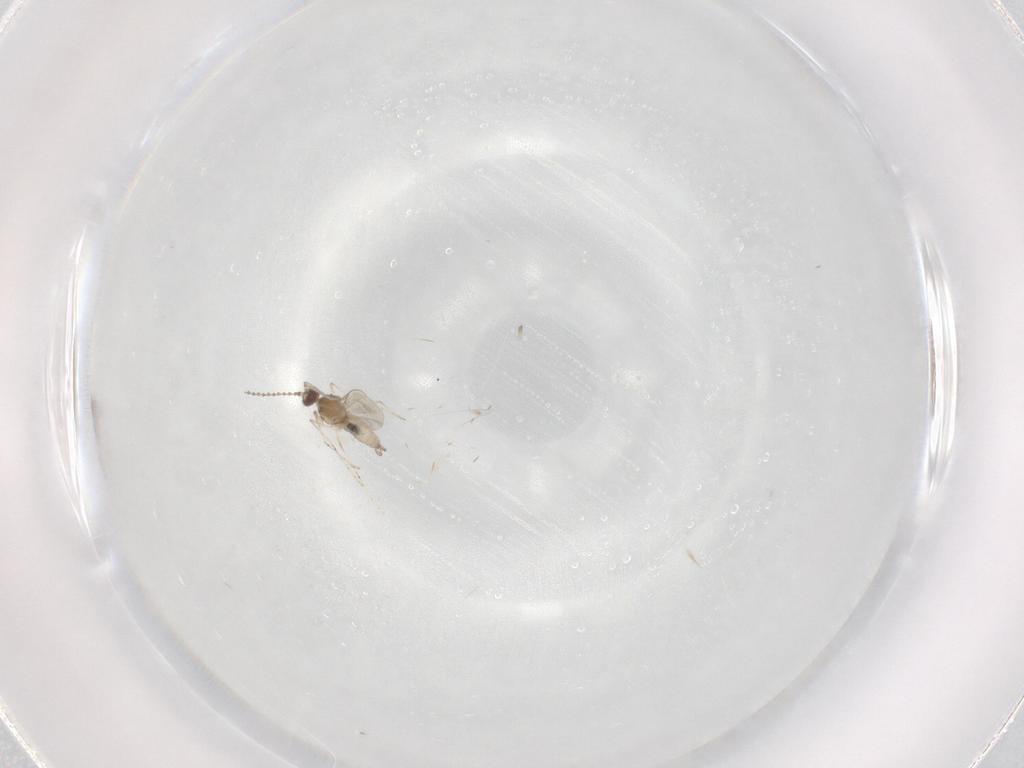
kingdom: Animalia
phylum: Arthropoda
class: Insecta
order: Diptera
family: Cecidomyiidae
